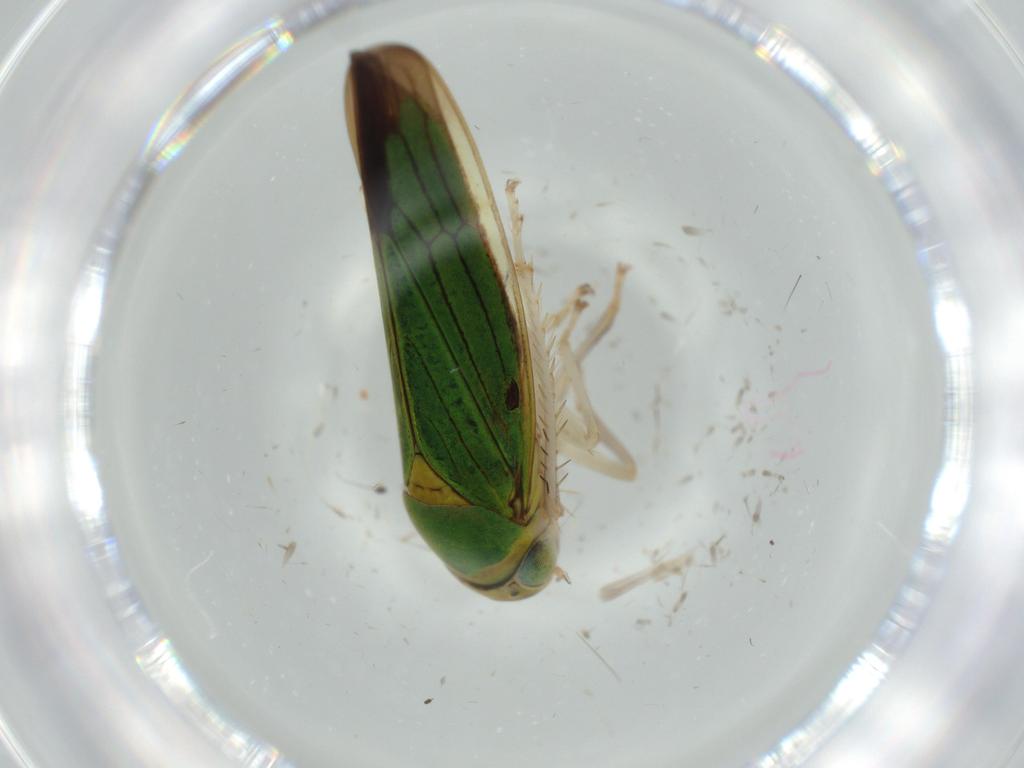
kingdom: Animalia
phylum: Arthropoda
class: Insecta
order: Hemiptera
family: Cicadellidae
